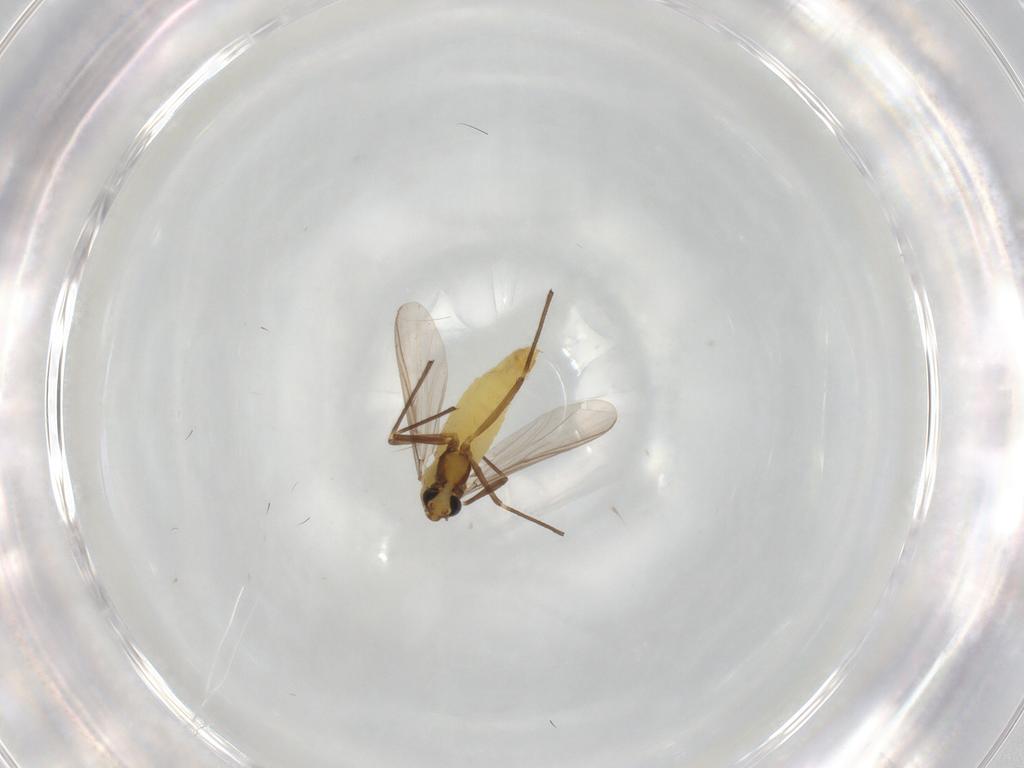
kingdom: Animalia
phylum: Arthropoda
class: Insecta
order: Diptera
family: Chironomidae
